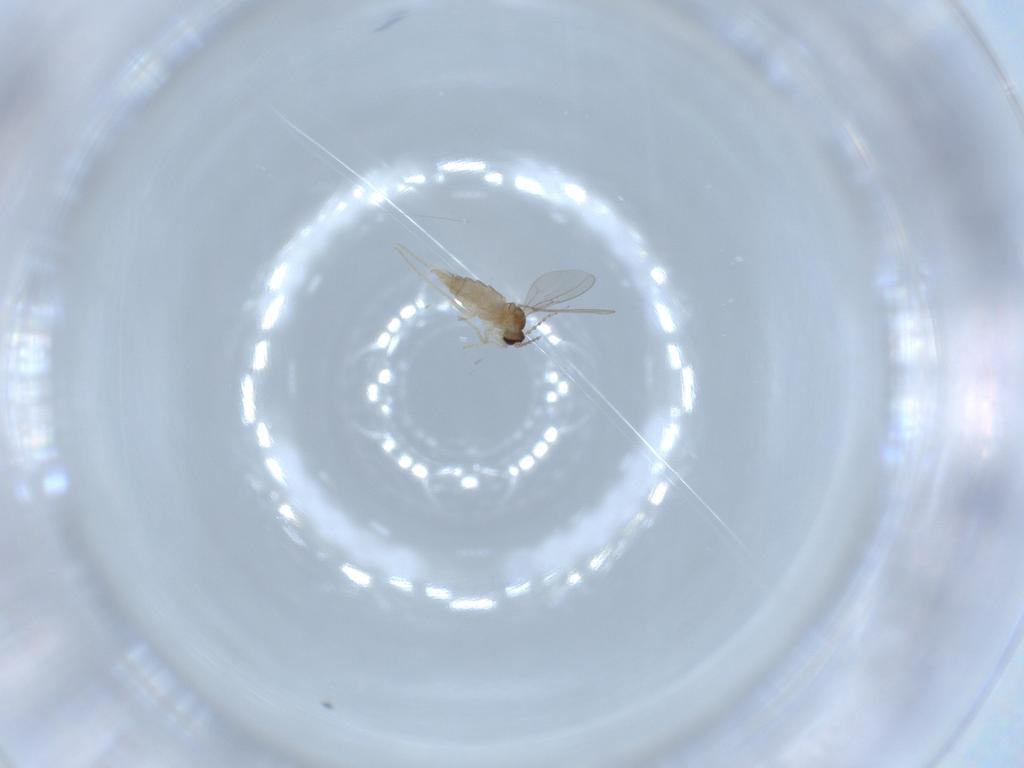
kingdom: Animalia
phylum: Arthropoda
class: Insecta
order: Diptera
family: Cecidomyiidae
